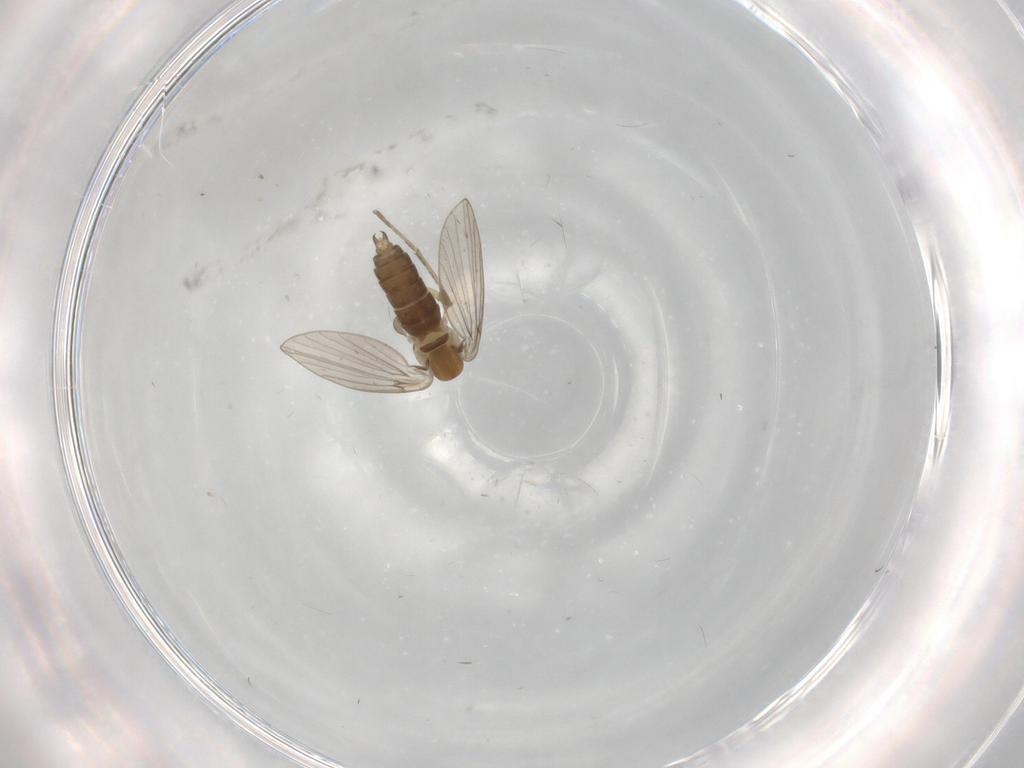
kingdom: Animalia
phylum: Arthropoda
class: Insecta
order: Diptera
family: Psychodidae
